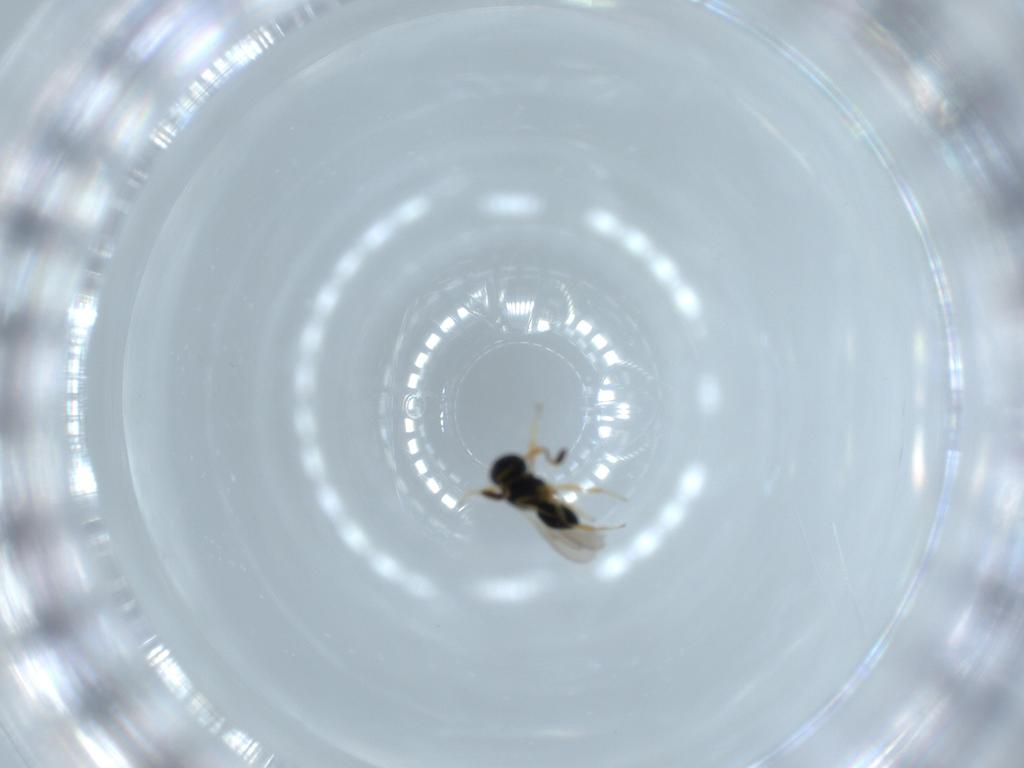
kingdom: Animalia
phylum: Arthropoda
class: Insecta
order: Hymenoptera
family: Scelionidae
